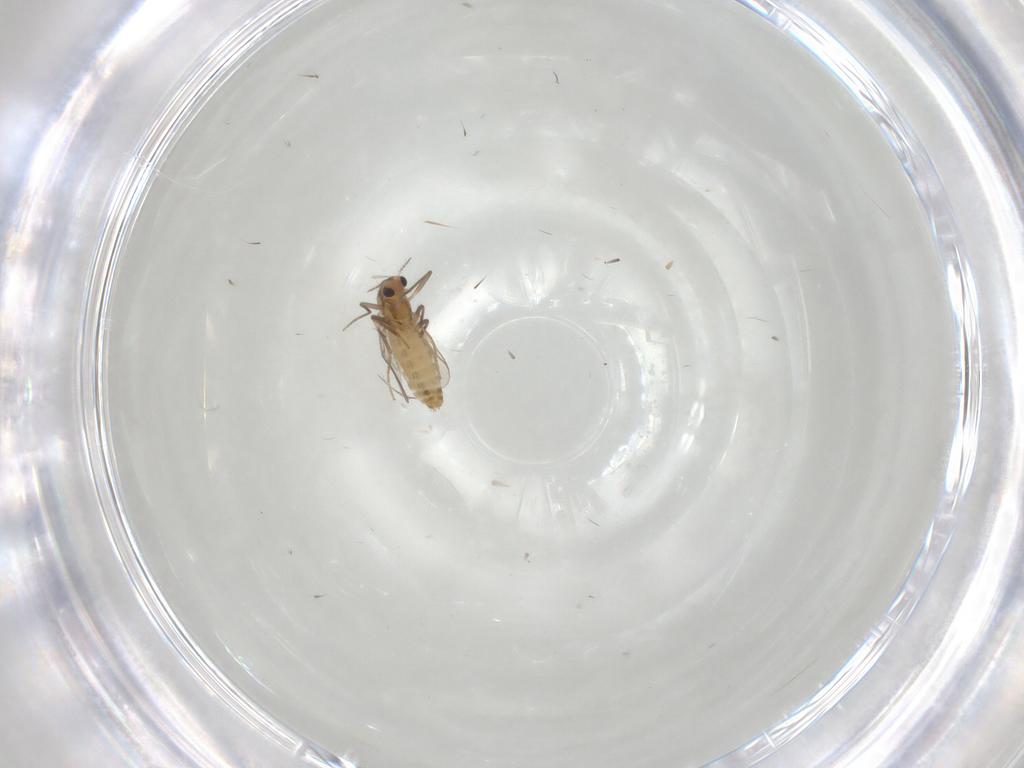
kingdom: Animalia
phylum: Arthropoda
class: Insecta
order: Diptera
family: Chironomidae
